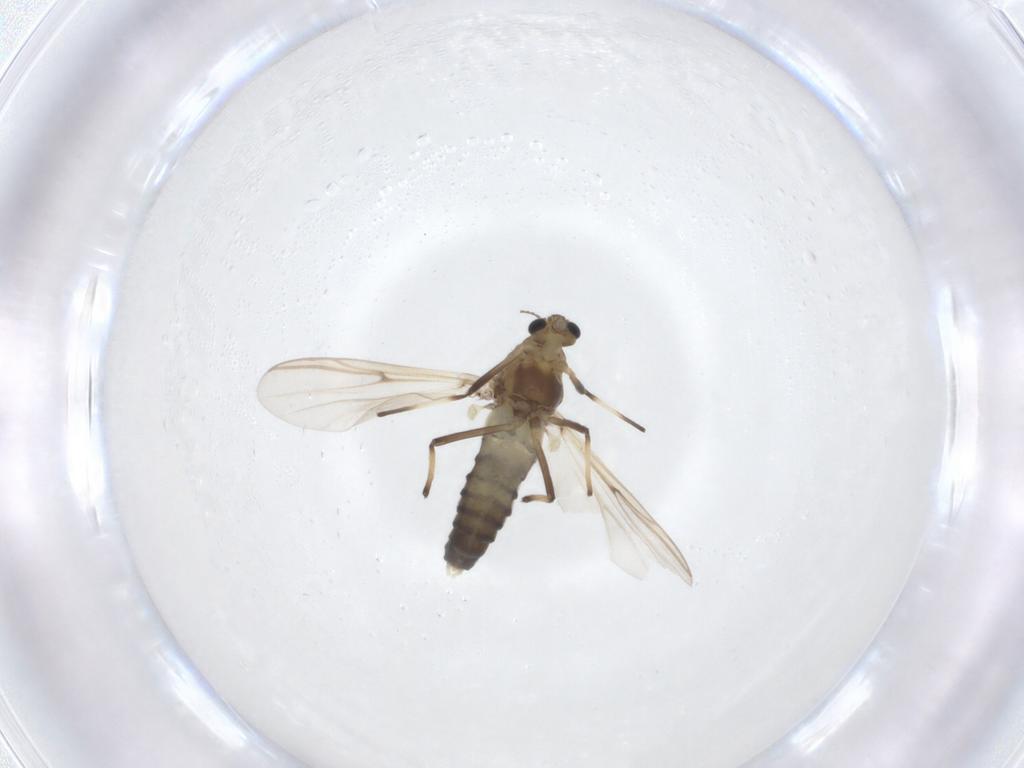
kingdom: Animalia
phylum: Arthropoda
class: Insecta
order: Diptera
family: Chironomidae
